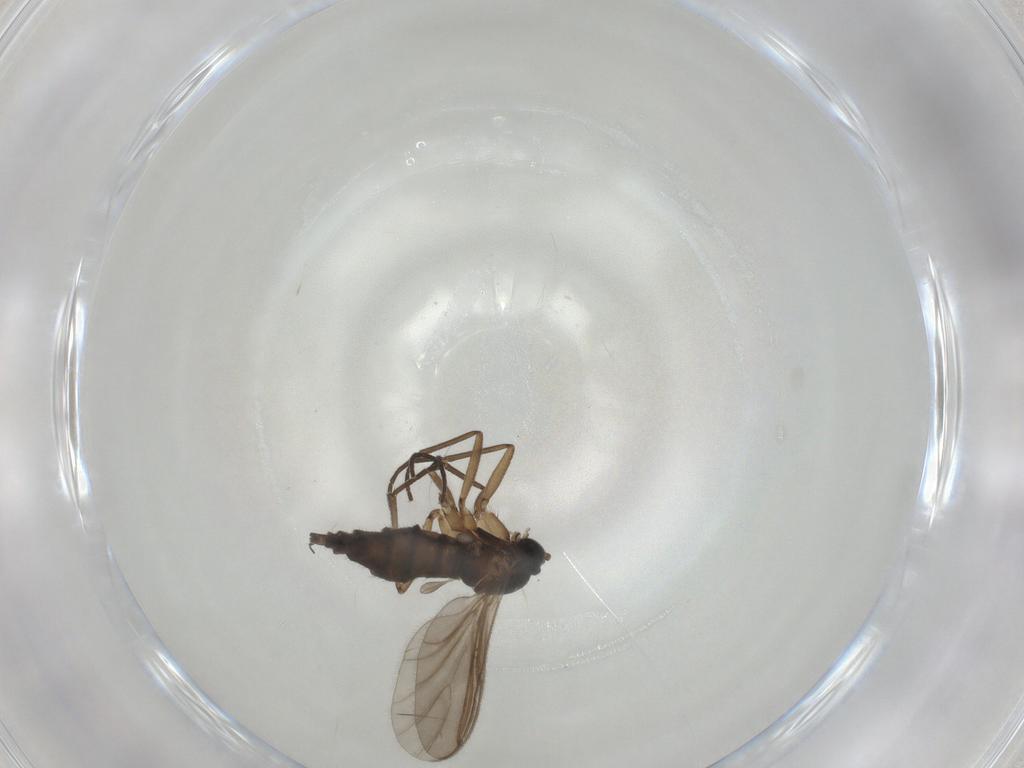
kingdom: Animalia
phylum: Arthropoda
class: Insecta
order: Diptera
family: Sciaridae
